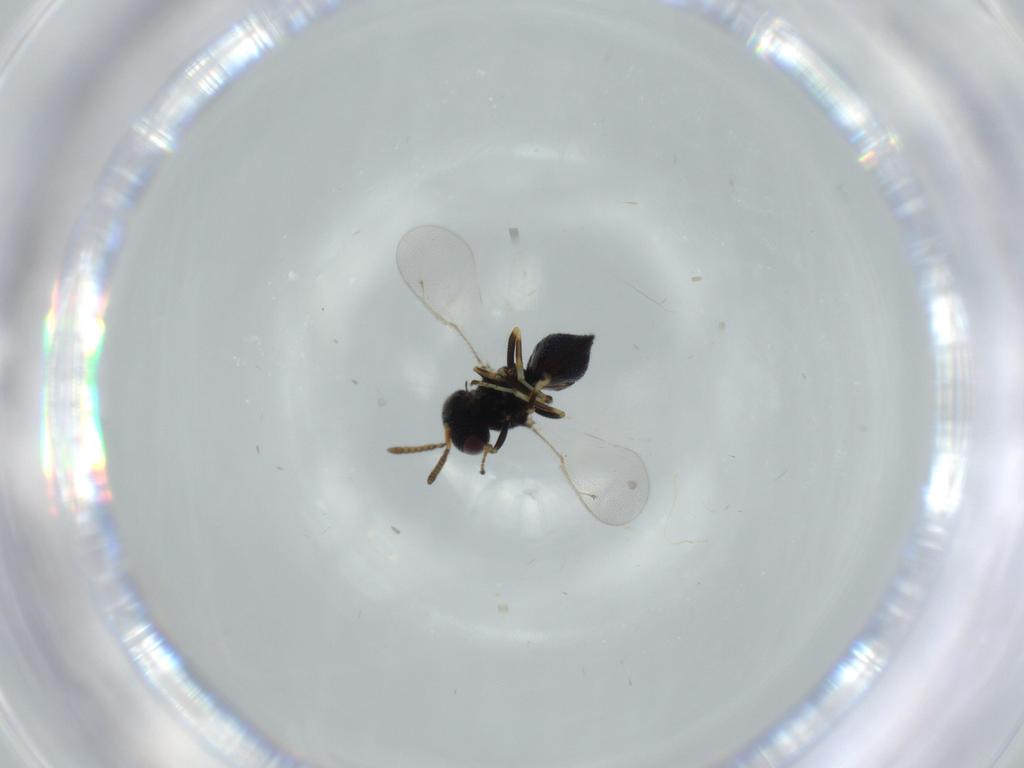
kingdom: Animalia
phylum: Arthropoda
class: Insecta
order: Hymenoptera
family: Pteromalidae
